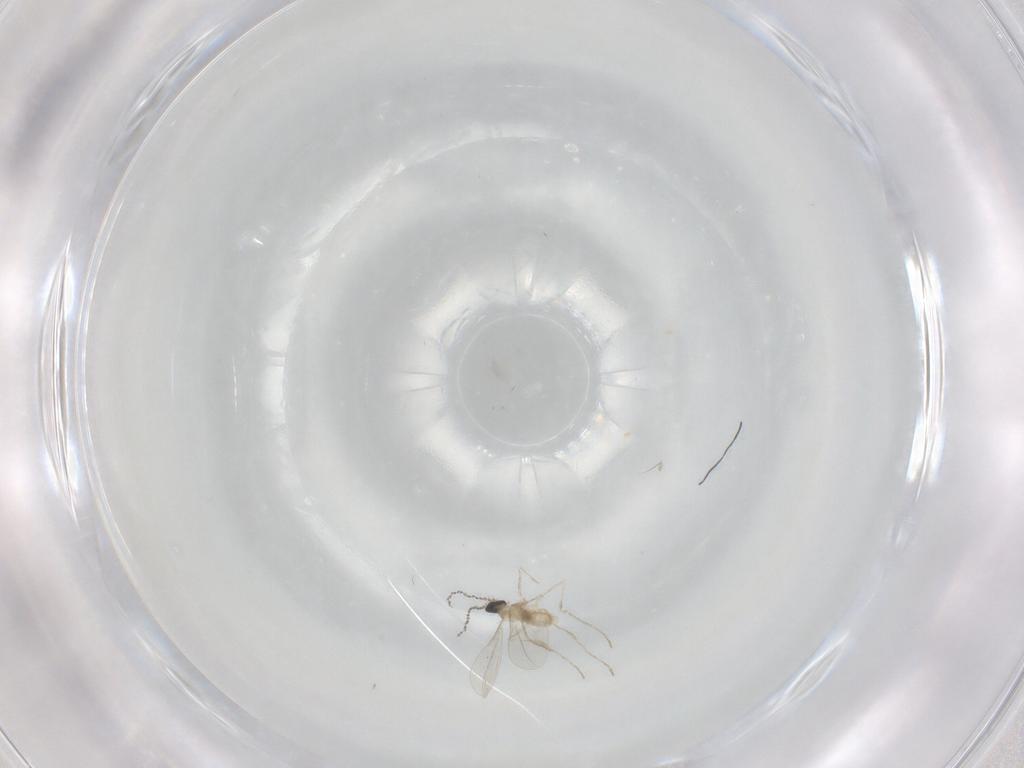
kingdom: Animalia
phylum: Arthropoda
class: Insecta
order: Diptera
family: Cecidomyiidae
